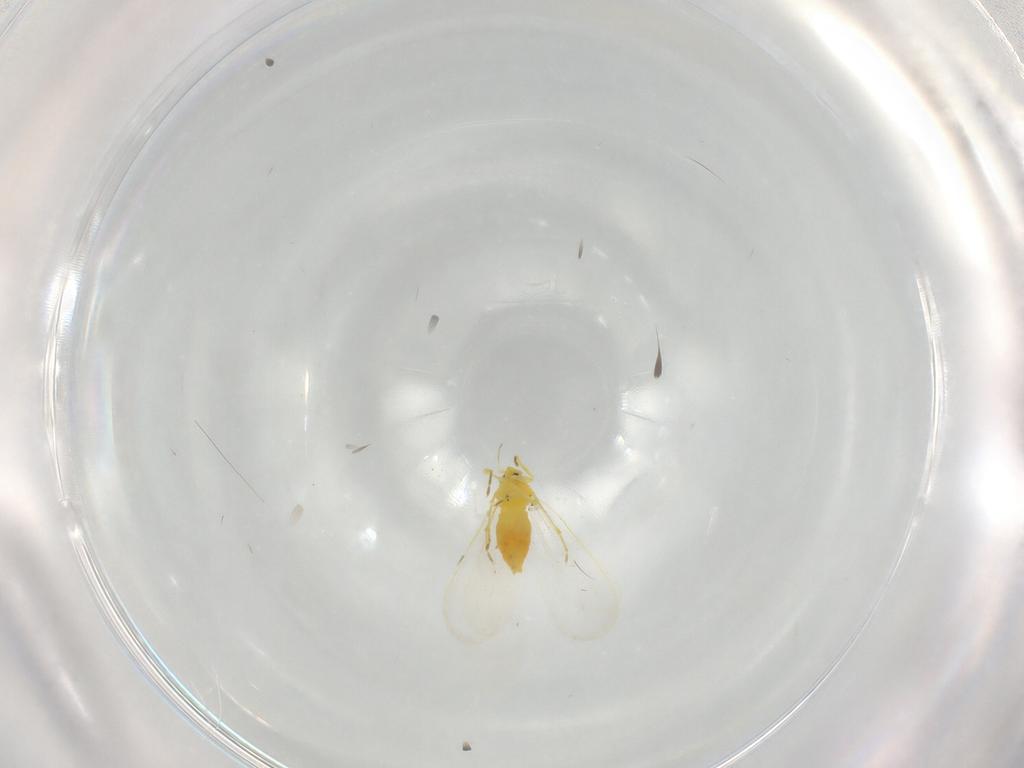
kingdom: Animalia
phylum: Arthropoda
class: Insecta
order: Hemiptera
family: Aleyrodidae
